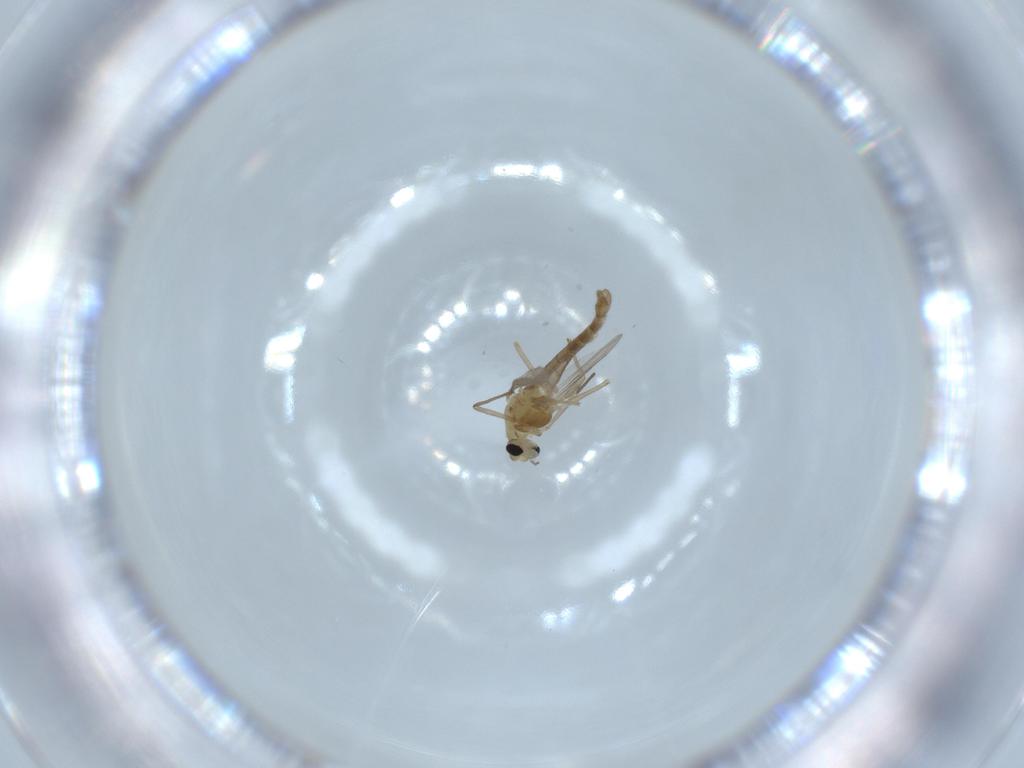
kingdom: Animalia
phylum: Arthropoda
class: Insecta
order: Diptera
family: Chironomidae
